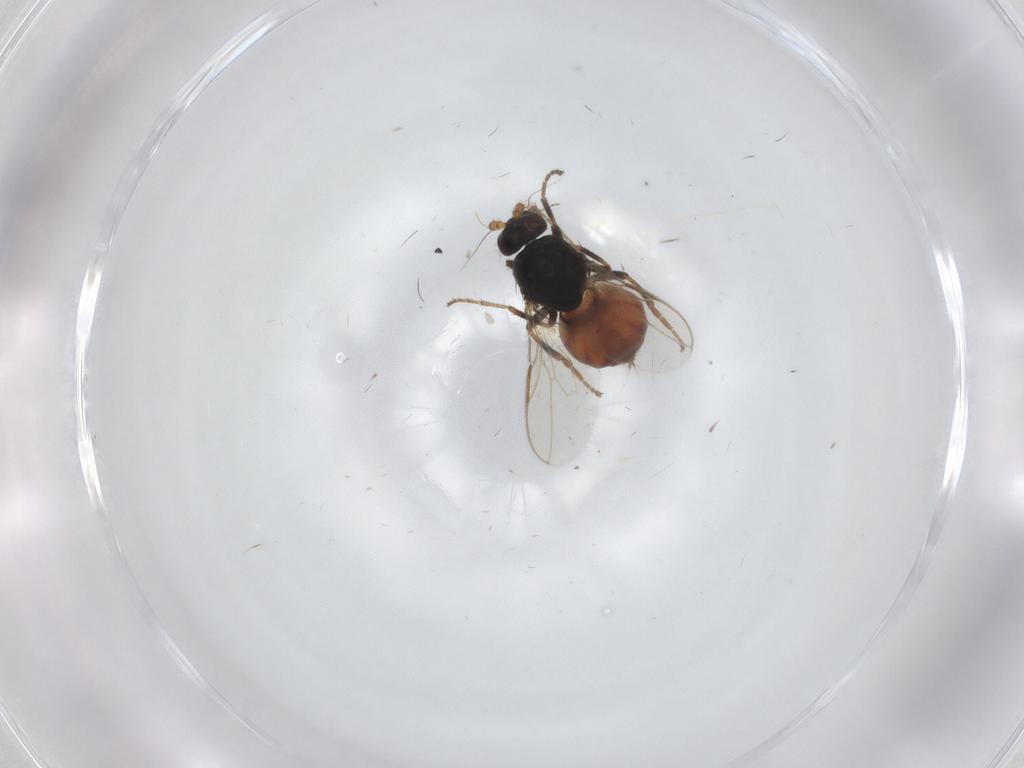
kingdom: Animalia
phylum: Arthropoda
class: Insecta
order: Diptera
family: Sphaeroceridae
